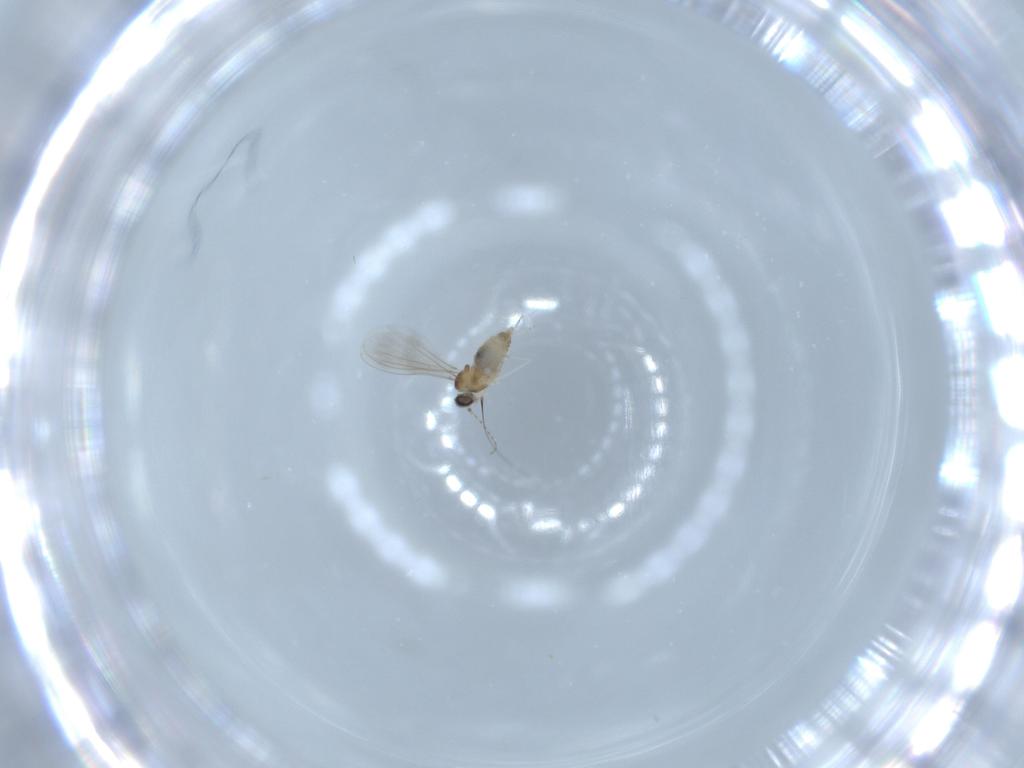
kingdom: Animalia
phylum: Arthropoda
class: Insecta
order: Diptera
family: Cecidomyiidae
